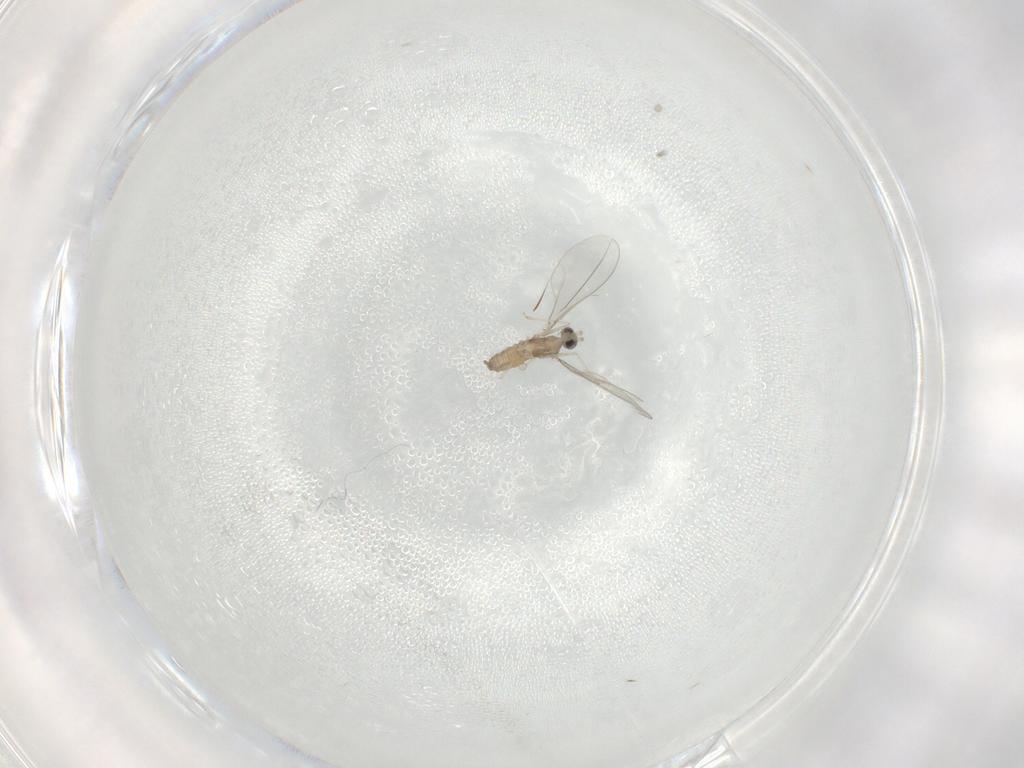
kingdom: Animalia
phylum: Arthropoda
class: Insecta
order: Diptera
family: Cecidomyiidae
